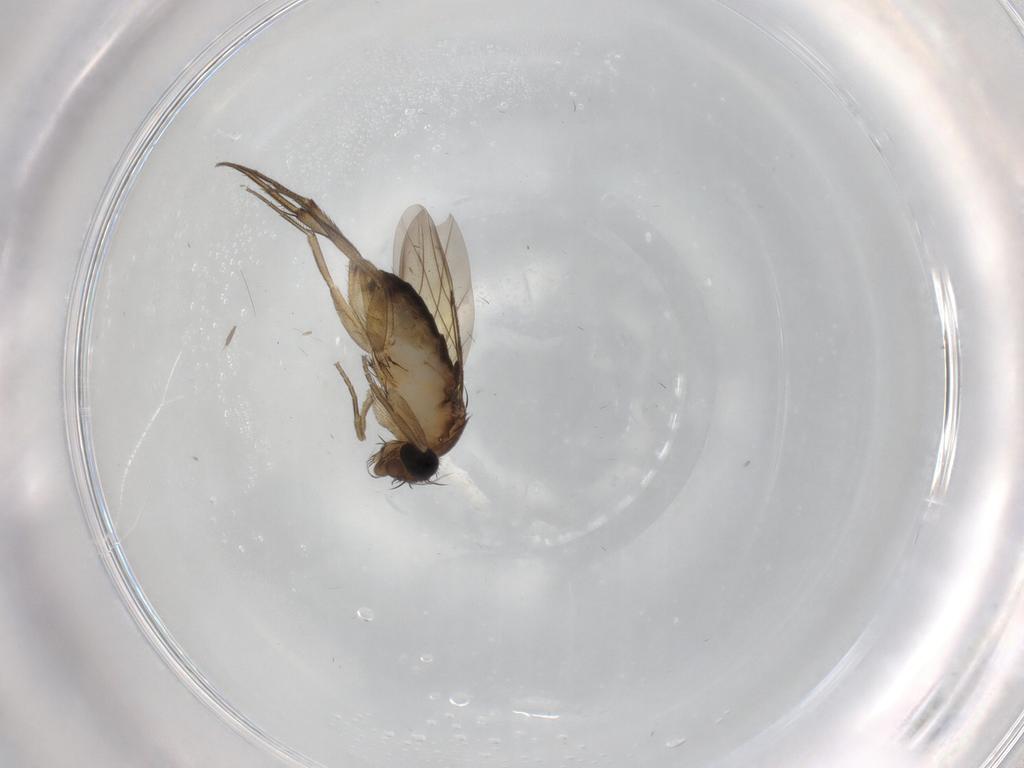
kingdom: Animalia
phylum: Arthropoda
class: Insecta
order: Diptera
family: Phoridae
